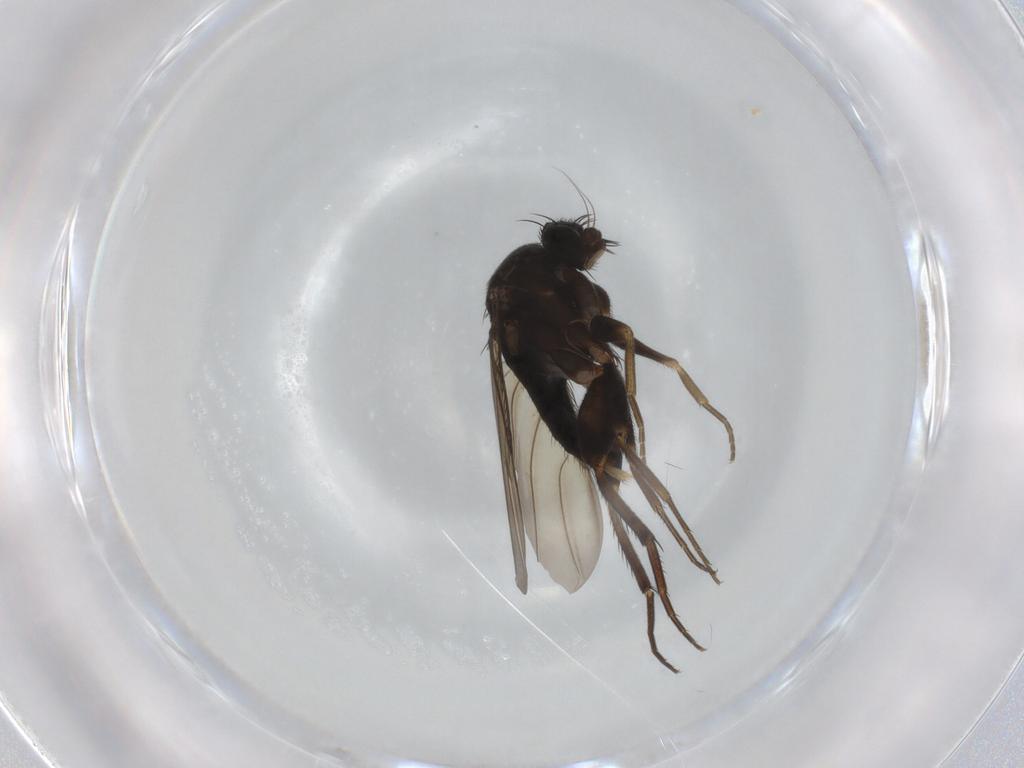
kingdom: Animalia
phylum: Arthropoda
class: Insecta
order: Diptera
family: Phoridae
